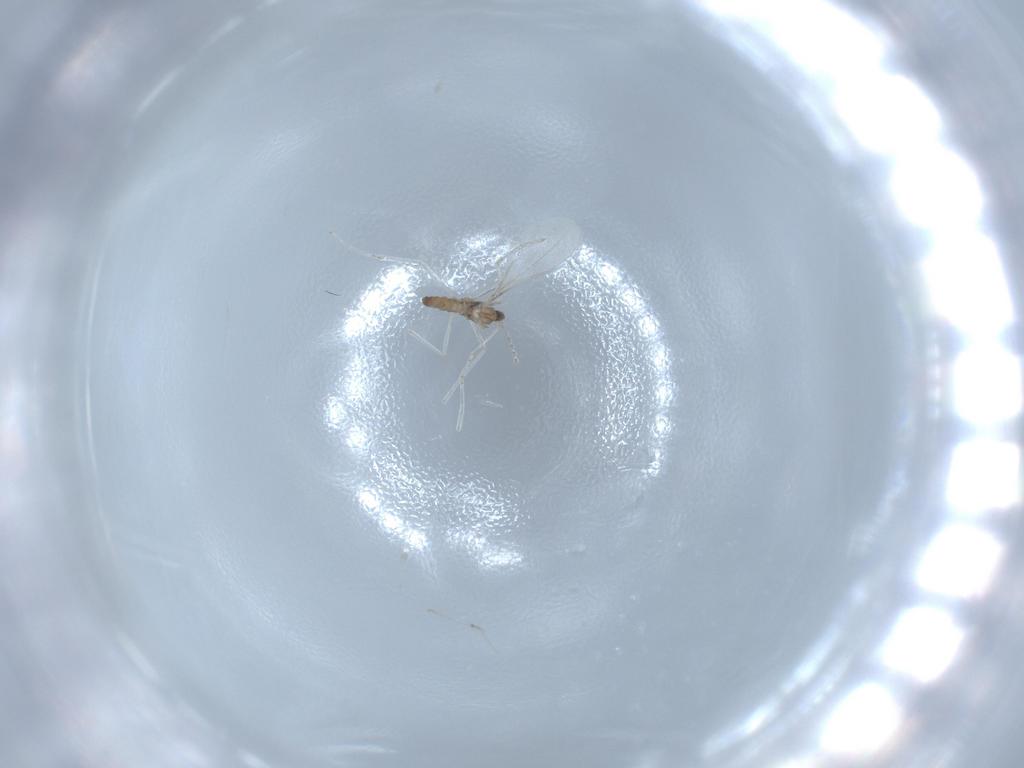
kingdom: Animalia
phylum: Arthropoda
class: Insecta
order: Diptera
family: Cecidomyiidae
